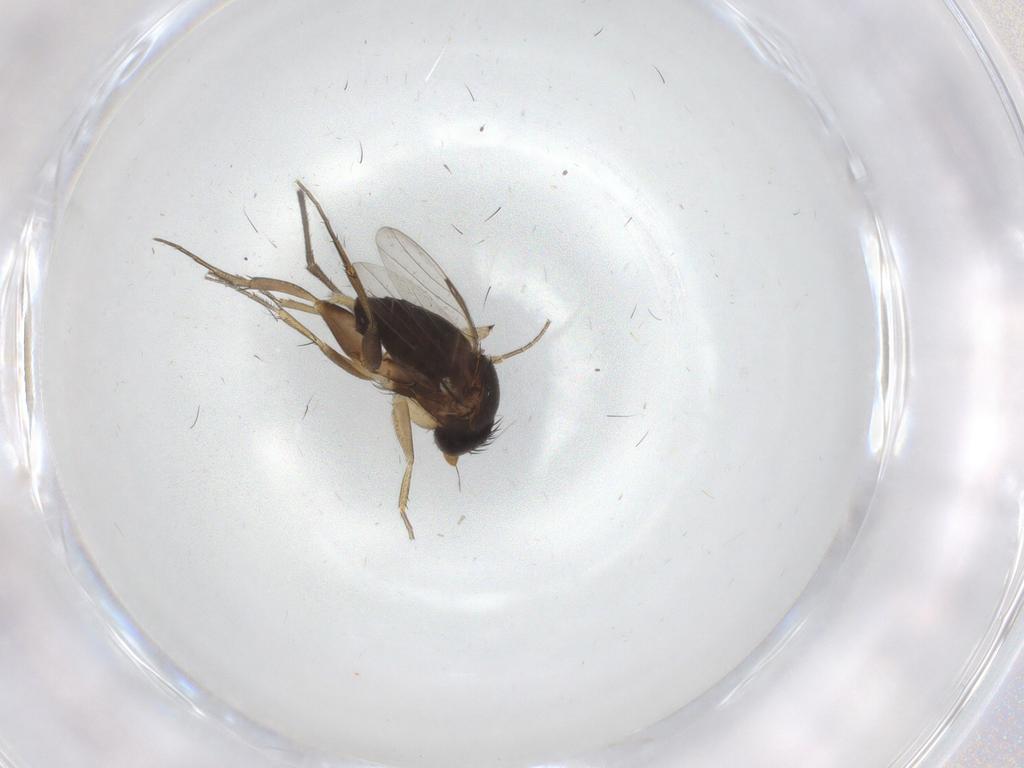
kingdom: Animalia
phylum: Arthropoda
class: Insecta
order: Diptera
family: Sciaridae
